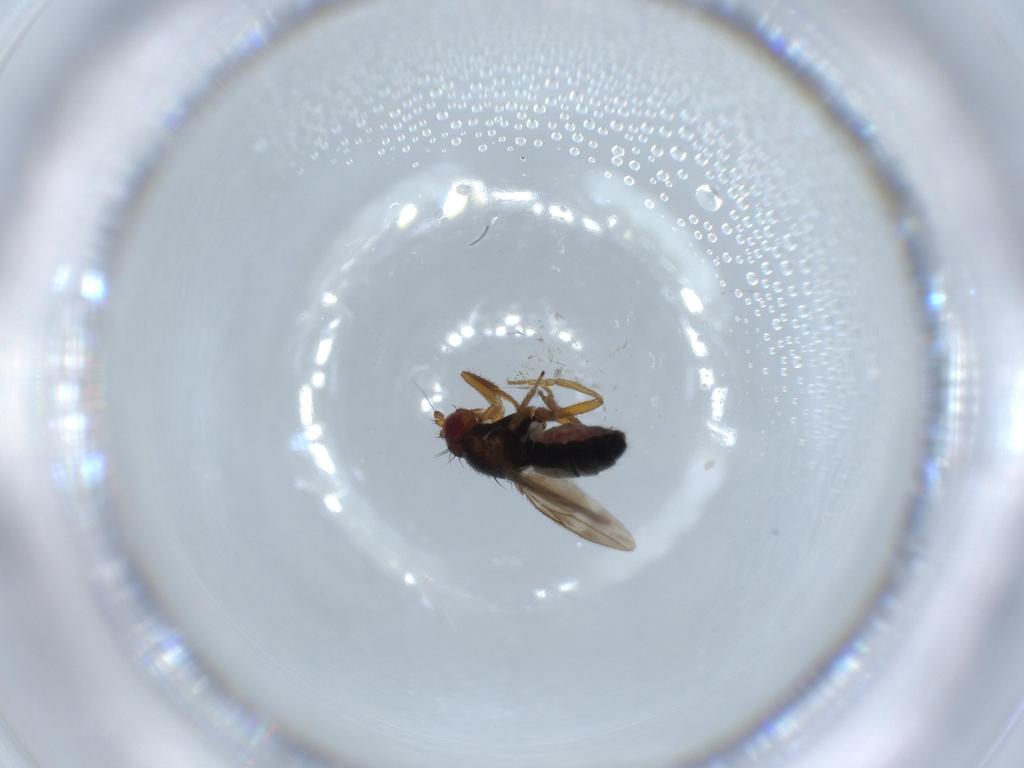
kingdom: Animalia
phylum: Arthropoda
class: Insecta
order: Diptera
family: Sphaeroceridae
